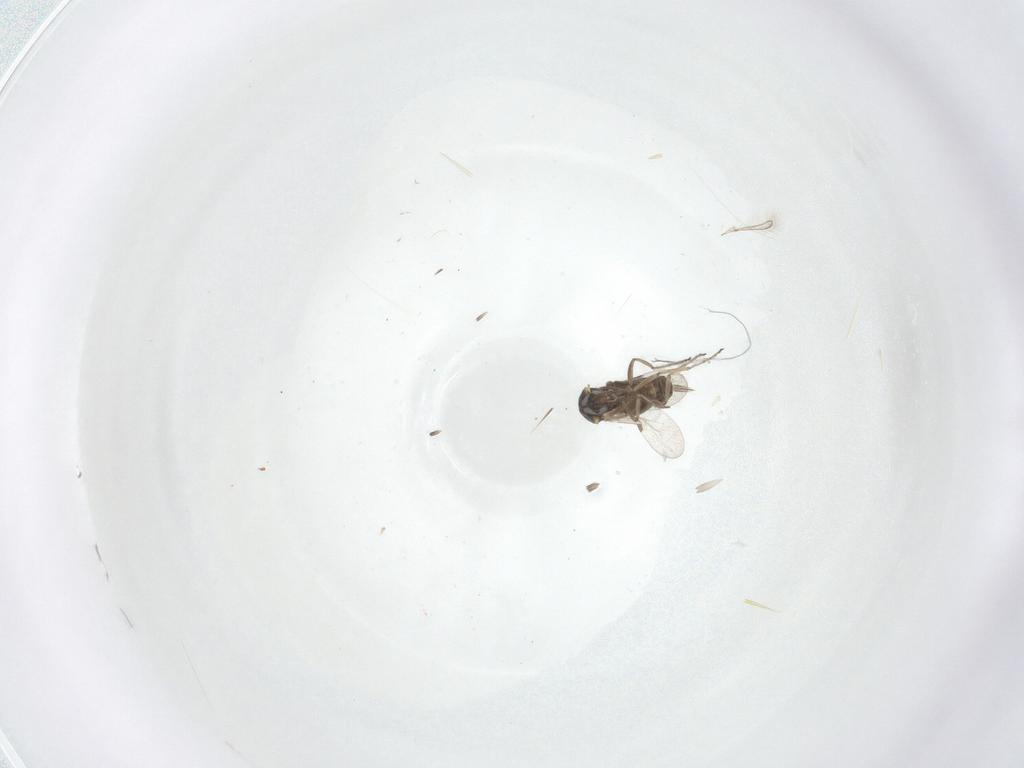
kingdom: Animalia
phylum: Arthropoda
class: Insecta
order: Diptera
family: Ceratopogonidae
